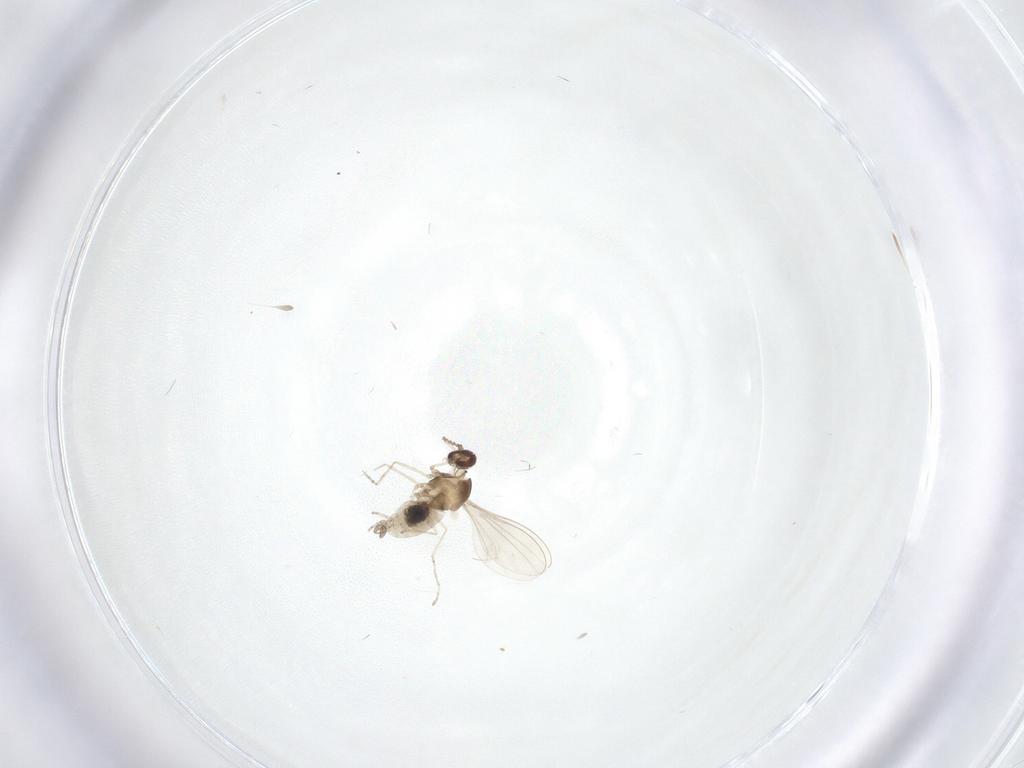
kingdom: Animalia
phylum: Arthropoda
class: Insecta
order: Diptera
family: Cecidomyiidae
